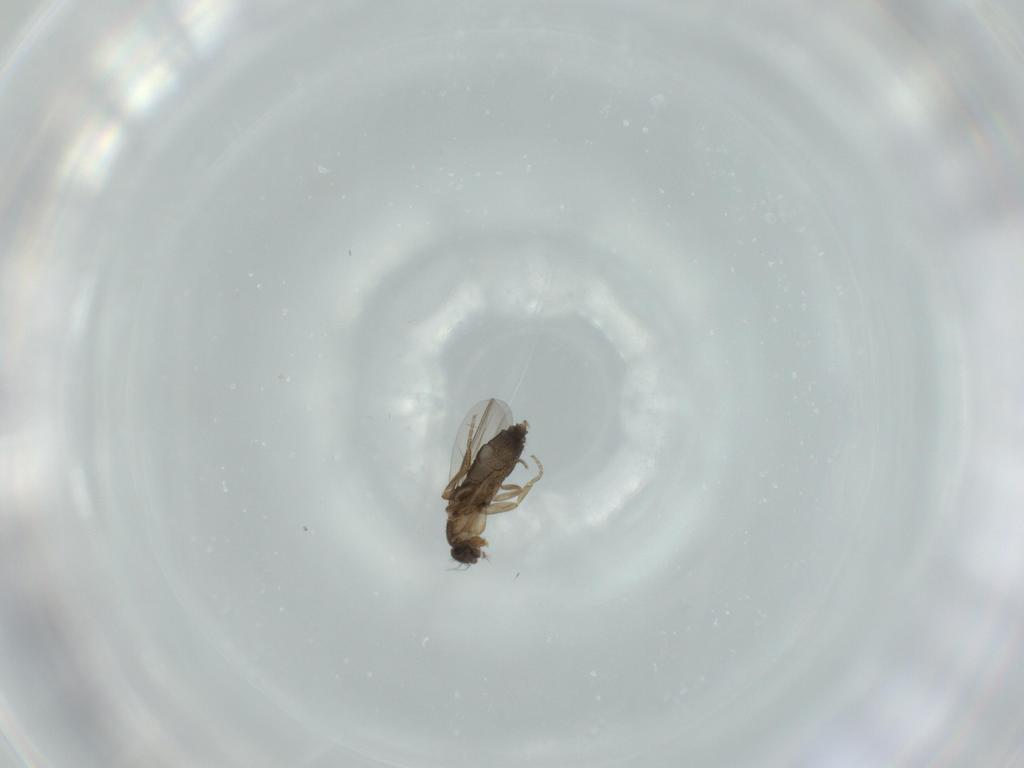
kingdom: Animalia
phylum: Arthropoda
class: Insecta
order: Diptera
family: Phoridae
